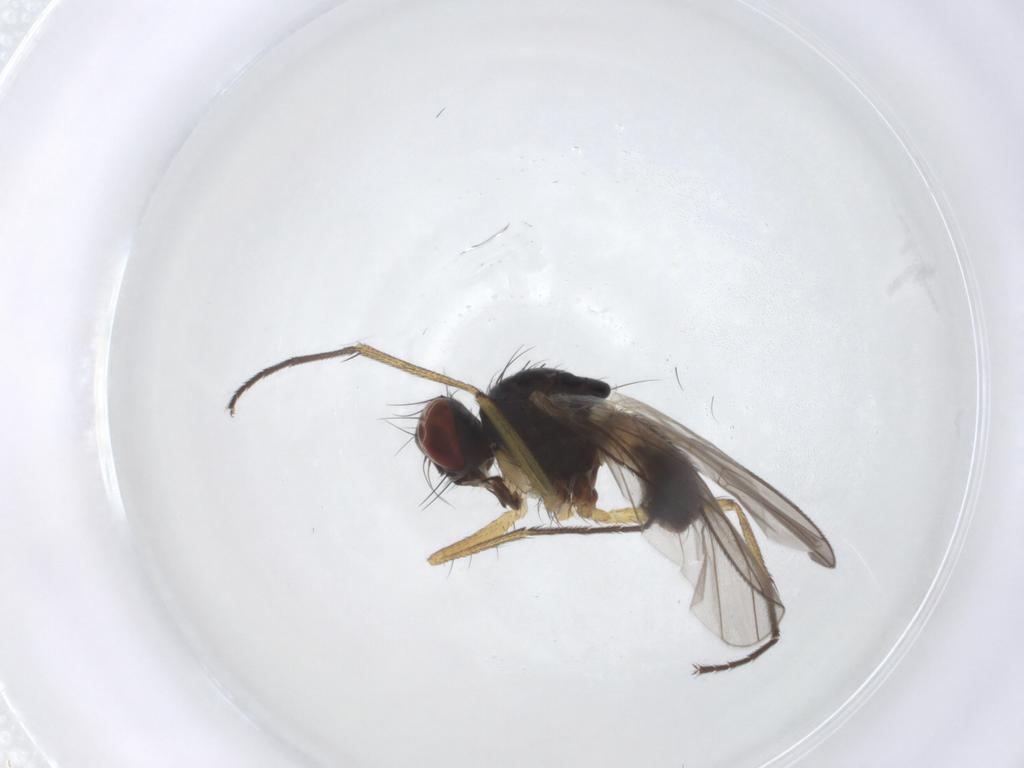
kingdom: Animalia
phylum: Arthropoda
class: Insecta
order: Diptera
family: Muscidae
